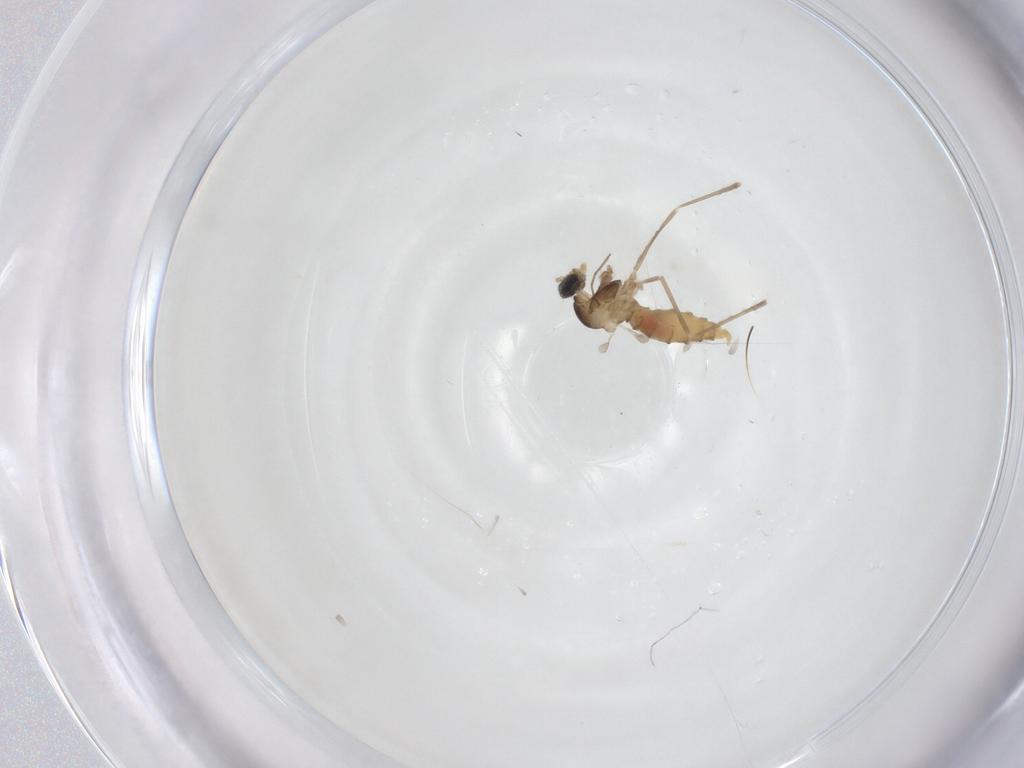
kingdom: Animalia
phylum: Arthropoda
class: Insecta
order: Diptera
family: Cecidomyiidae
